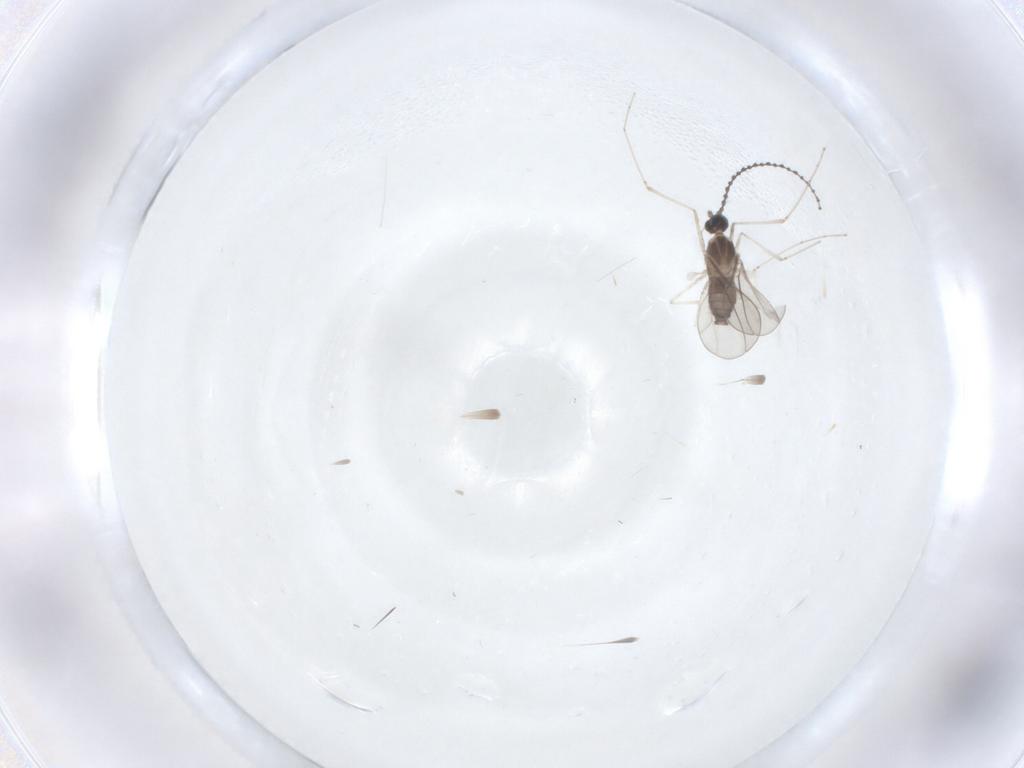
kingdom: Animalia
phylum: Arthropoda
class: Insecta
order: Diptera
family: Cecidomyiidae
